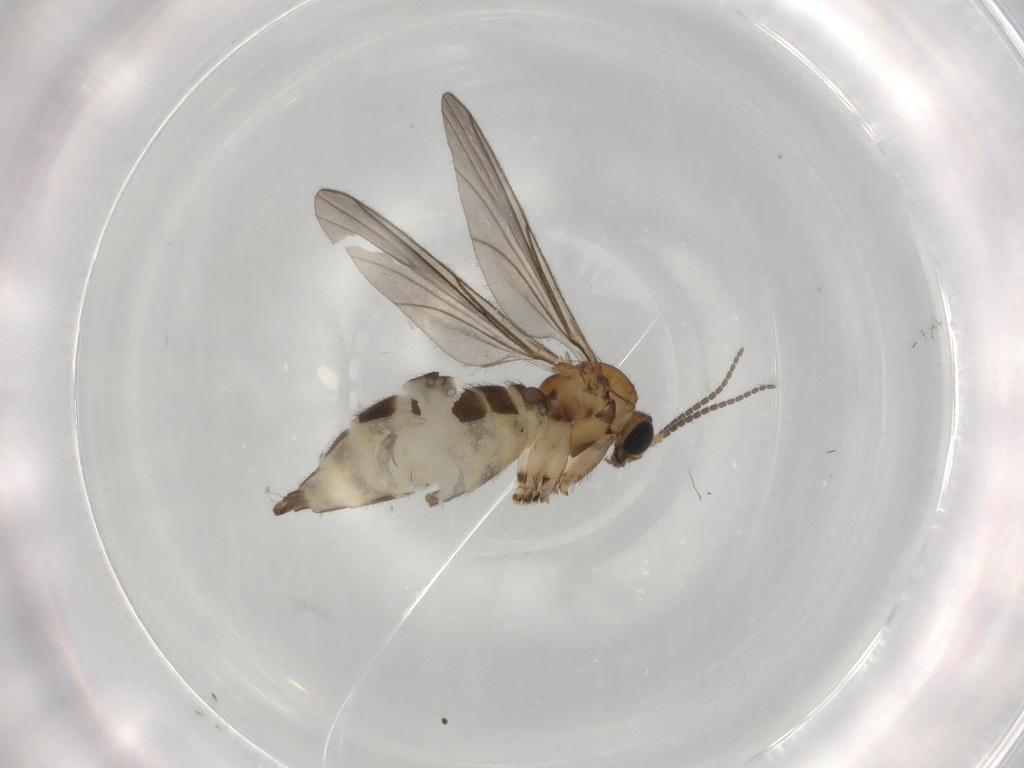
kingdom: Animalia
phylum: Arthropoda
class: Insecta
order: Diptera
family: Sciaridae
